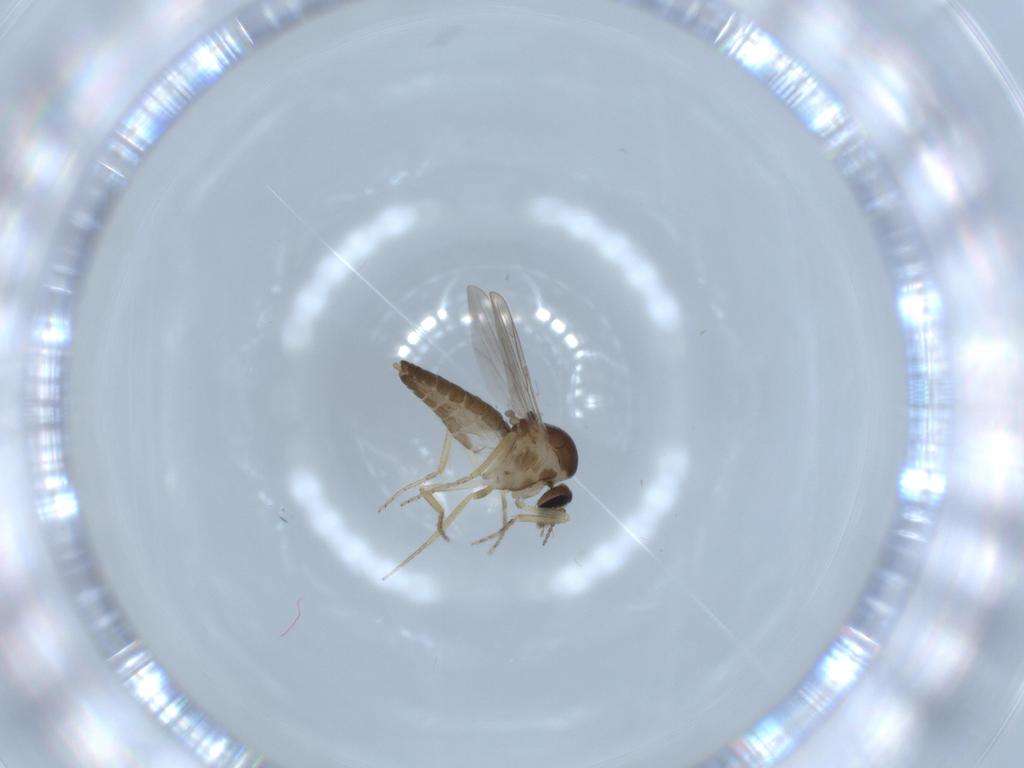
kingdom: Animalia
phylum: Arthropoda
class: Insecta
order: Diptera
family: Ceratopogonidae
